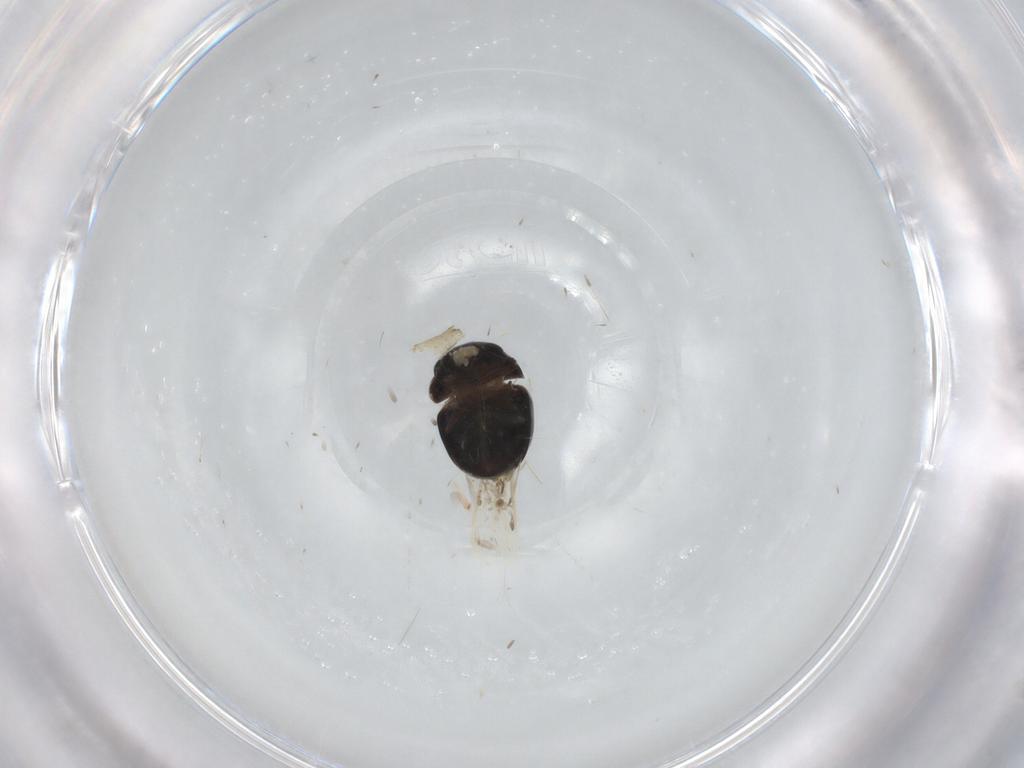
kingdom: Animalia
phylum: Arthropoda
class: Insecta
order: Coleoptera
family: Cybocephalidae
